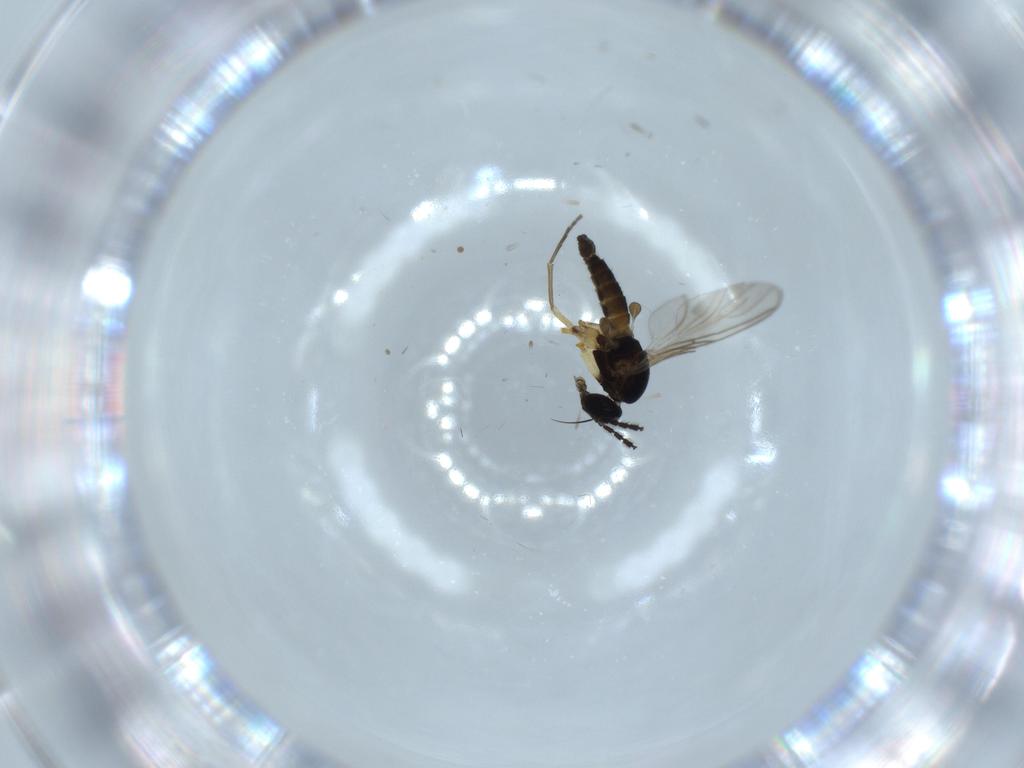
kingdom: Animalia
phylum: Arthropoda
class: Insecta
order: Diptera
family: Sciaridae
